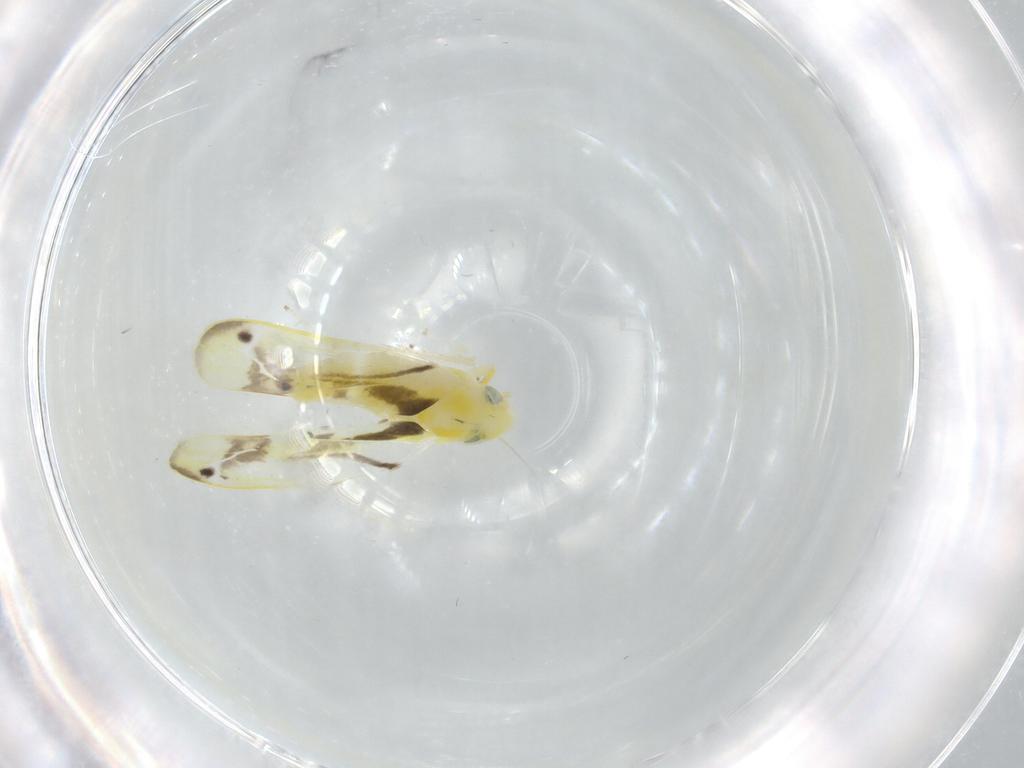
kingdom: Animalia
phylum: Arthropoda
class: Insecta
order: Hemiptera
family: Cicadellidae
